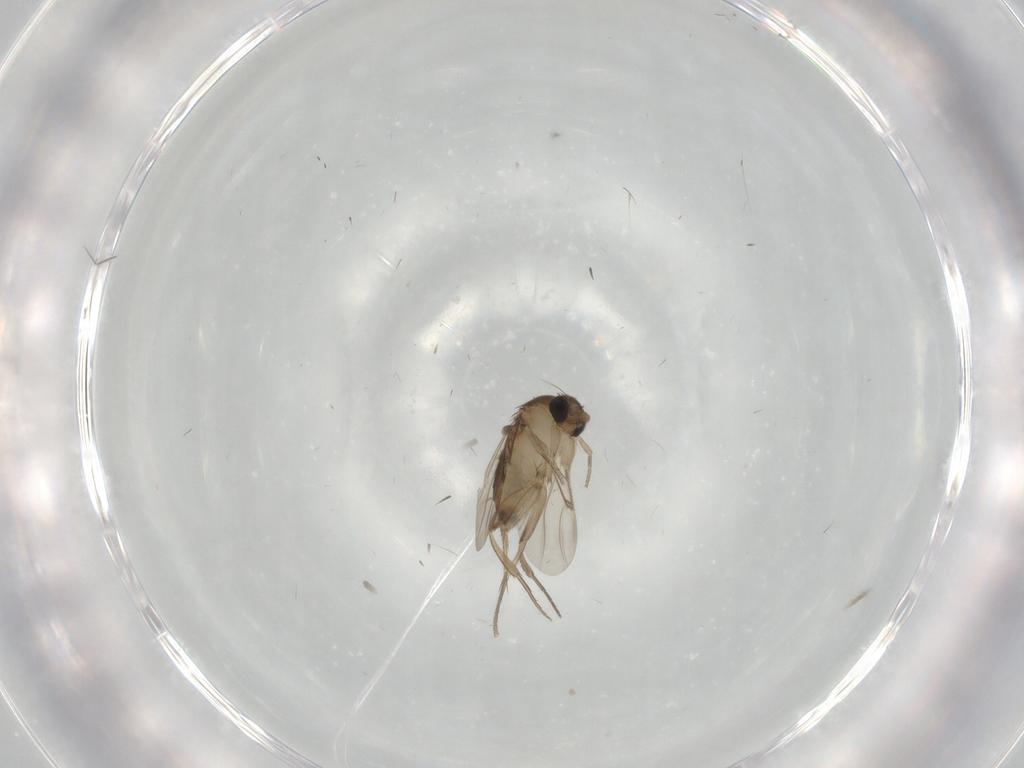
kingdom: Animalia
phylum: Arthropoda
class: Insecta
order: Diptera
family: Phoridae
